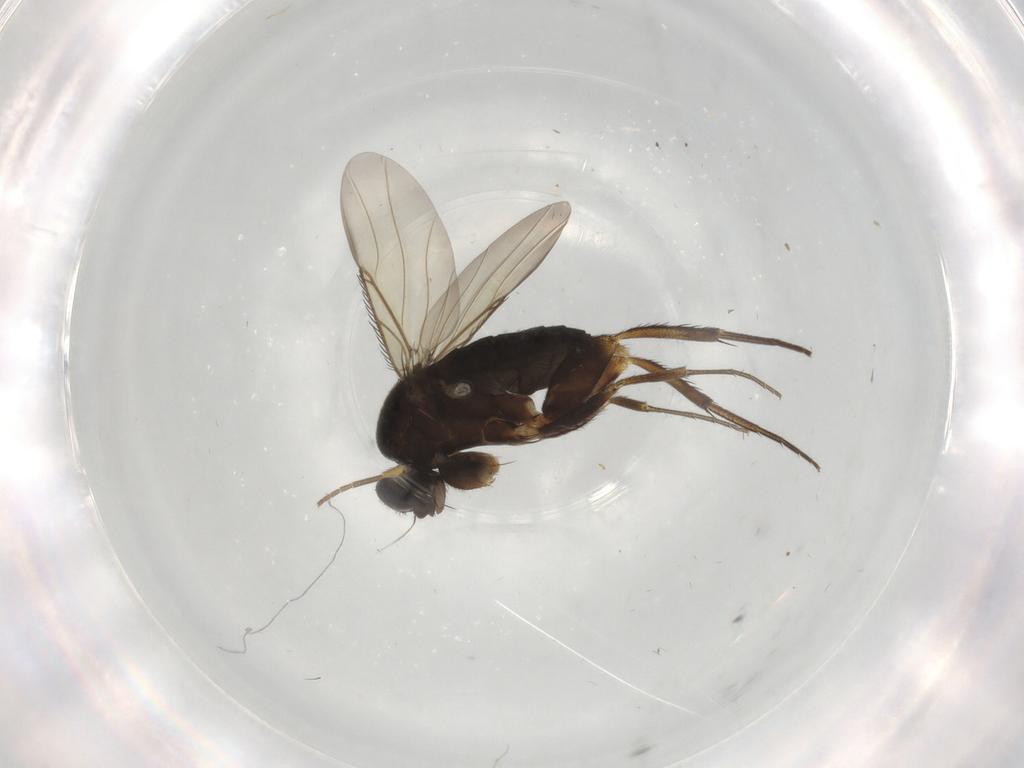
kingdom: Animalia
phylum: Arthropoda
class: Insecta
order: Diptera
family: Drosophilidae
